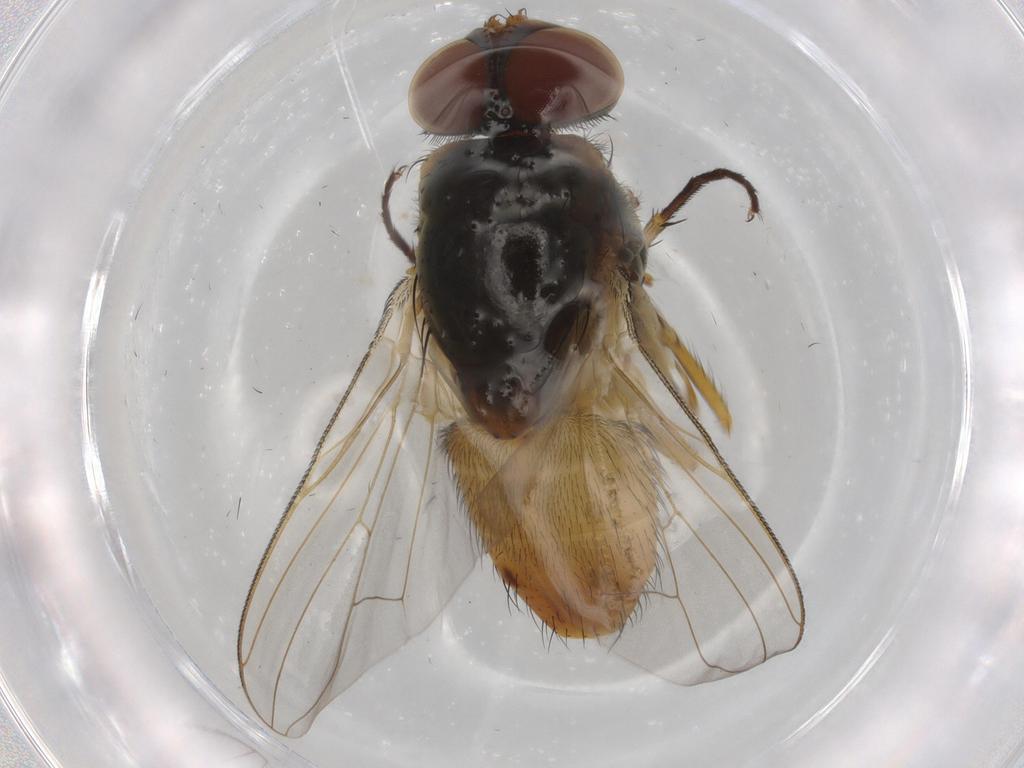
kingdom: Animalia
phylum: Arthropoda
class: Insecta
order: Diptera
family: Muscidae
